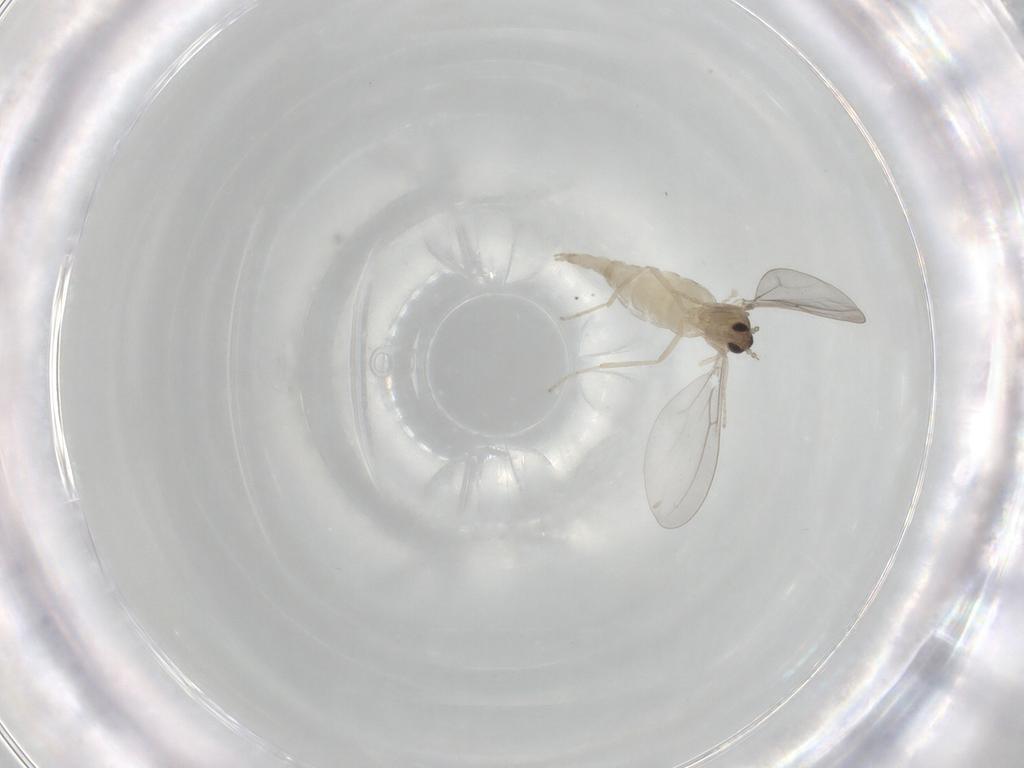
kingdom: Animalia
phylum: Arthropoda
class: Insecta
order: Diptera
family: Cecidomyiidae
